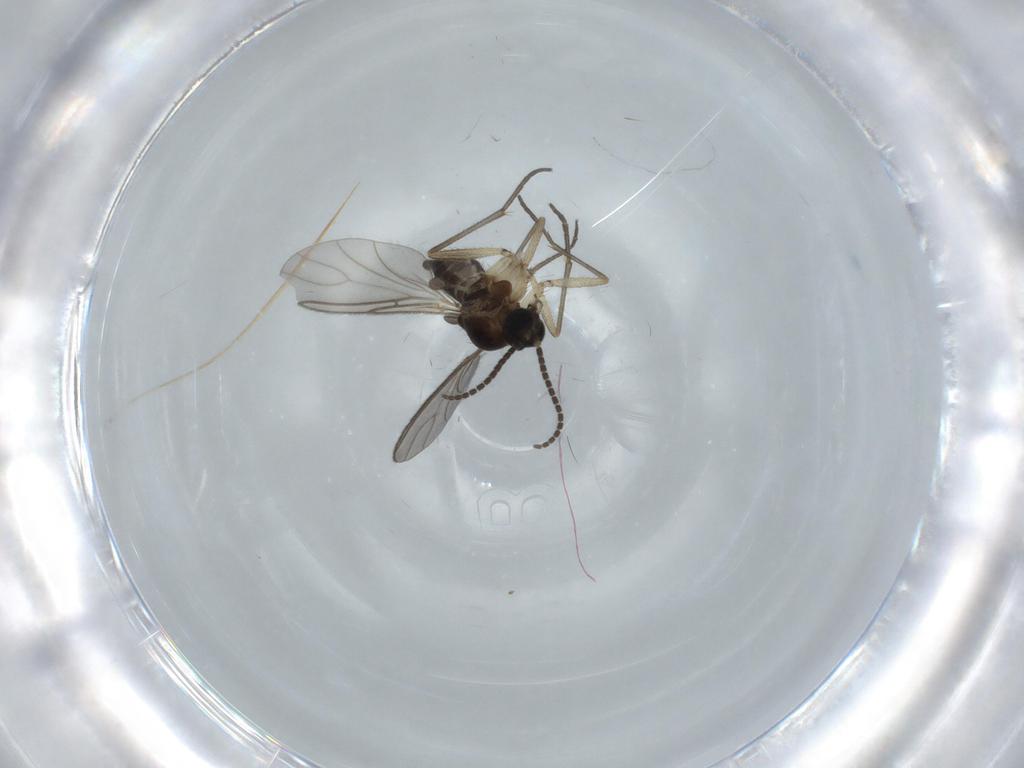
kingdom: Animalia
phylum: Arthropoda
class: Insecta
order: Diptera
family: Sciaridae
